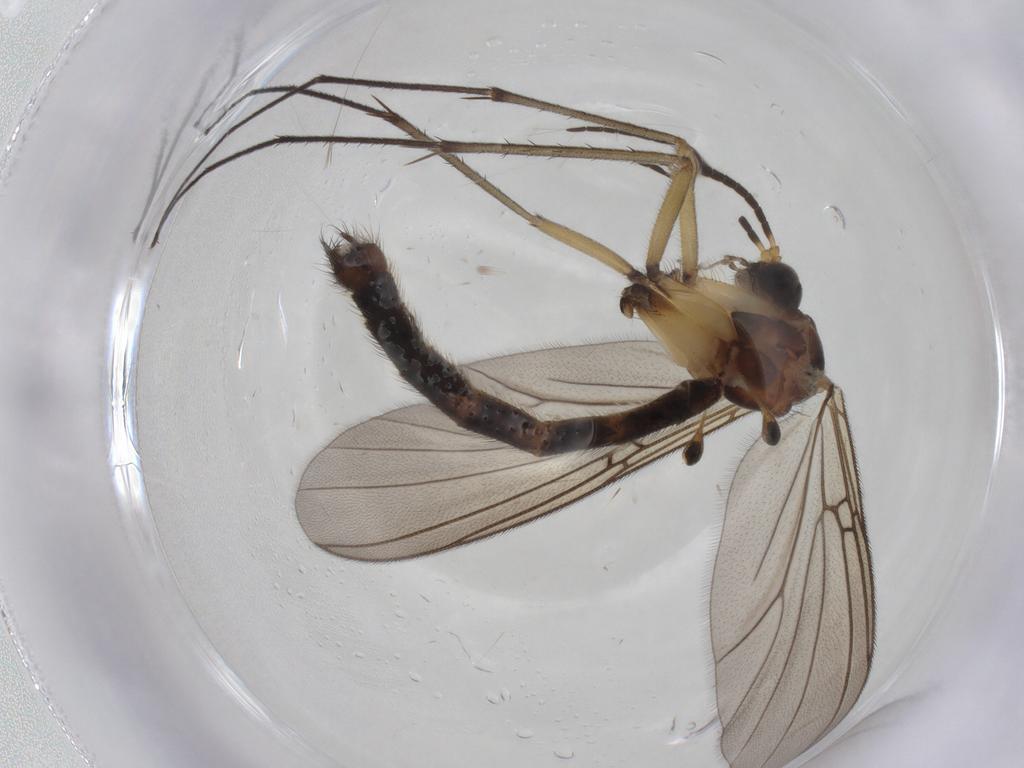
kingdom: Animalia
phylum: Arthropoda
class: Insecta
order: Diptera
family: Mycetophilidae
